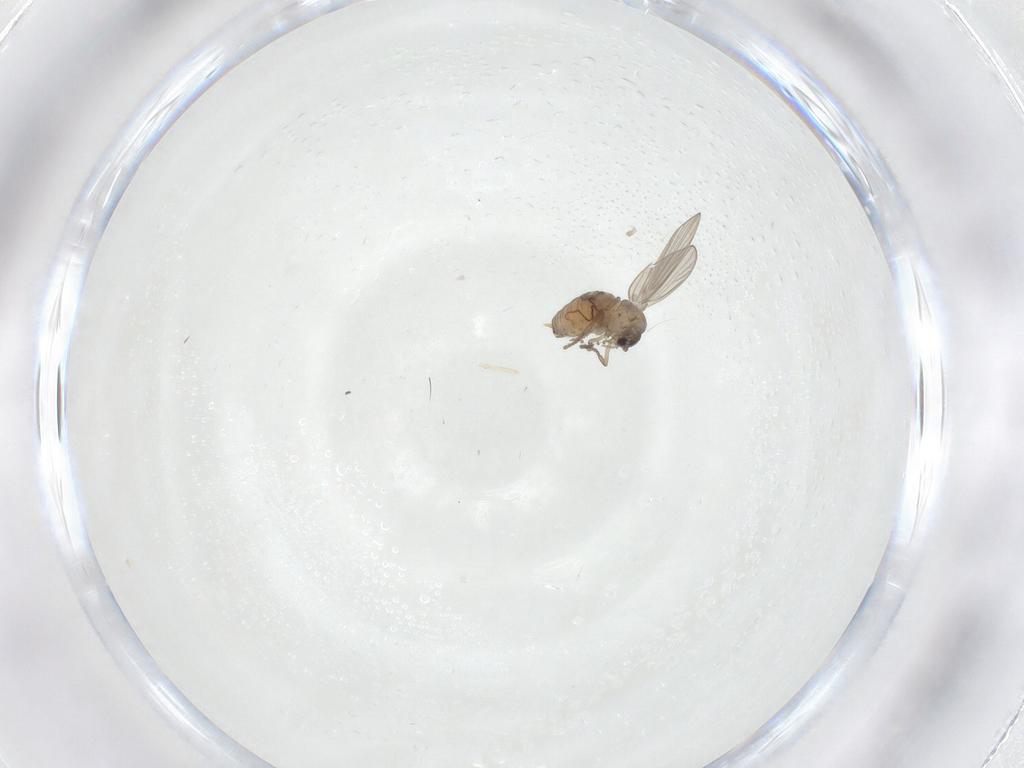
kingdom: Animalia
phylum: Arthropoda
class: Insecta
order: Diptera
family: Psychodidae
